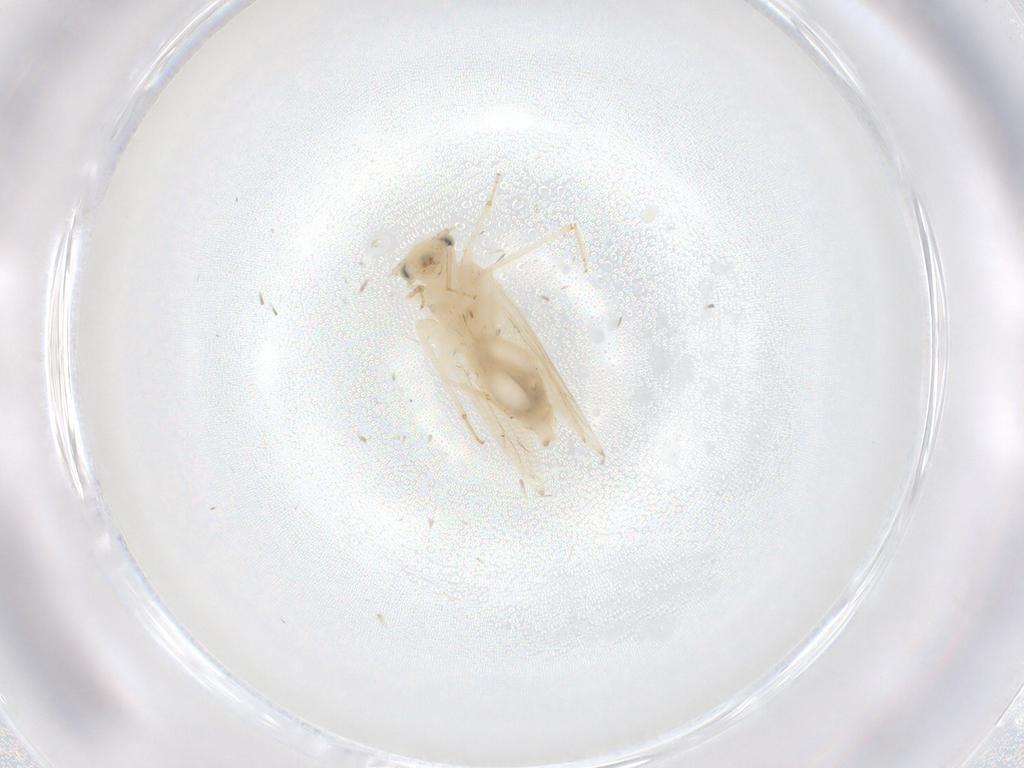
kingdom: Animalia
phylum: Arthropoda
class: Insecta
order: Psocodea
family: Lepidopsocidae
